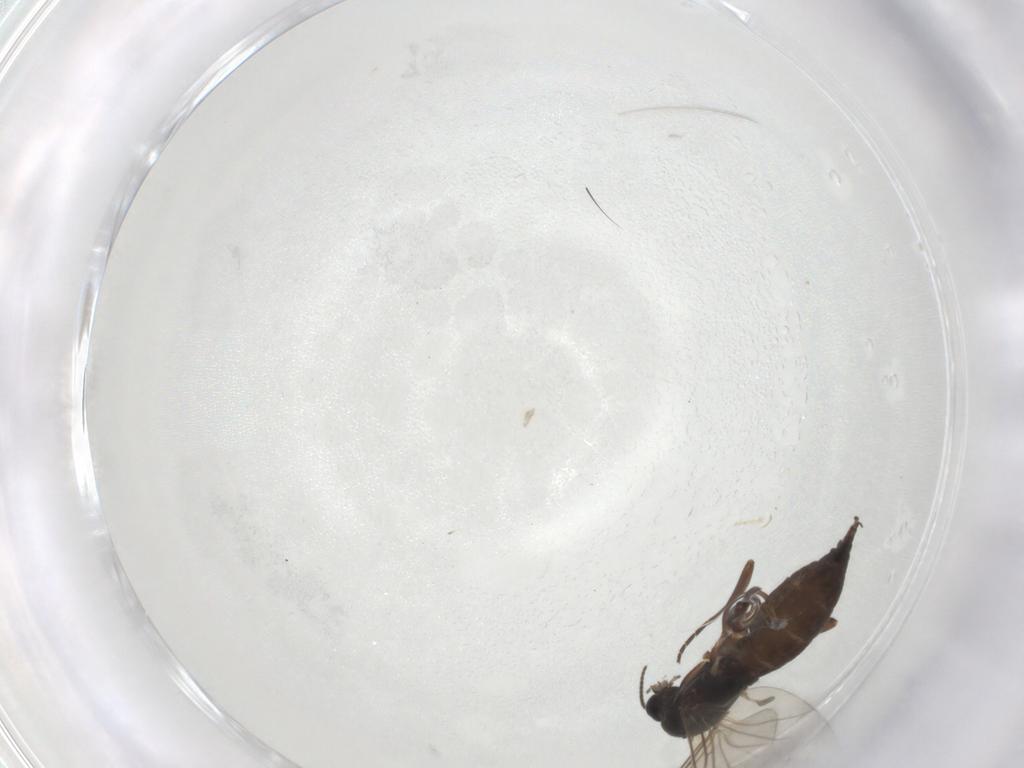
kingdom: Animalia
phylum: Arthropoda
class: Insecta
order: Diptera
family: Sciaridae
